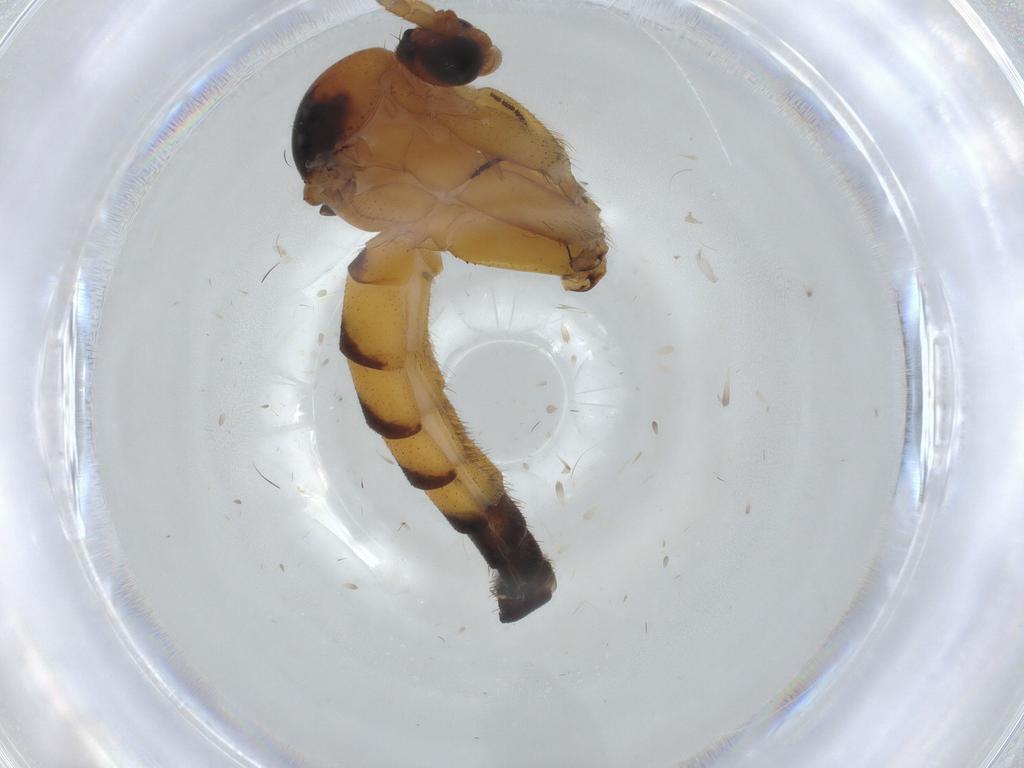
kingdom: Animalia
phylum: Arthropoda
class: Insecta
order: Diptera
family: Mycetophilidae
